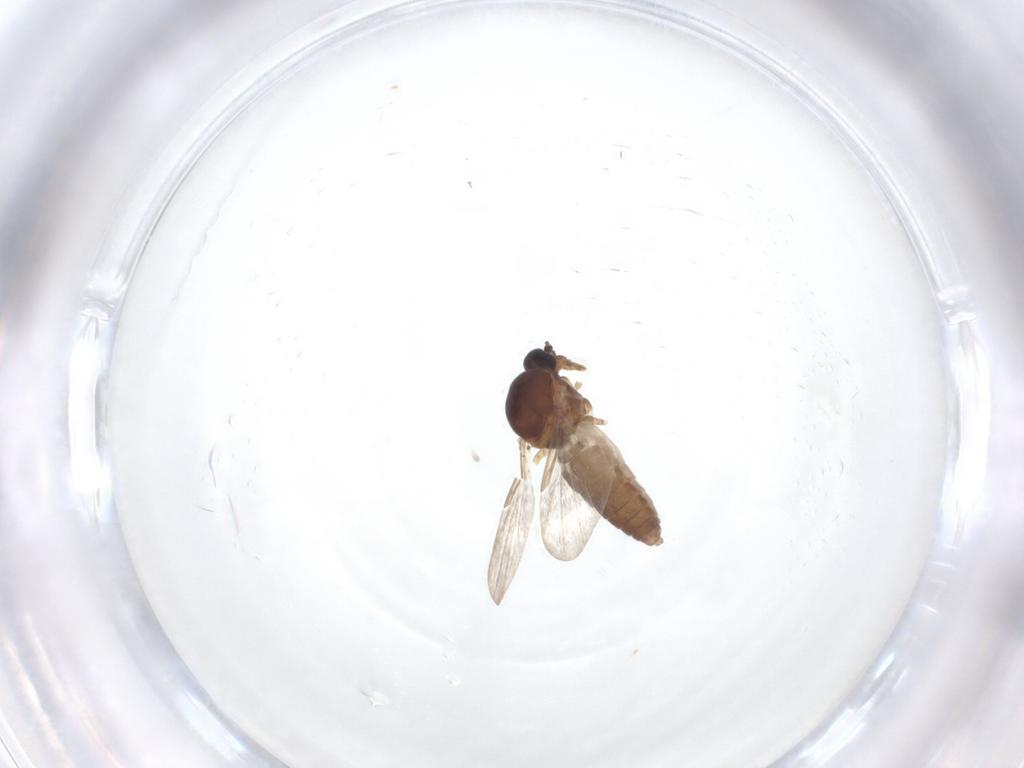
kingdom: Animalia
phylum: Arthropoda
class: Insecta
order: Diptera
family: Ceratopogonidae
